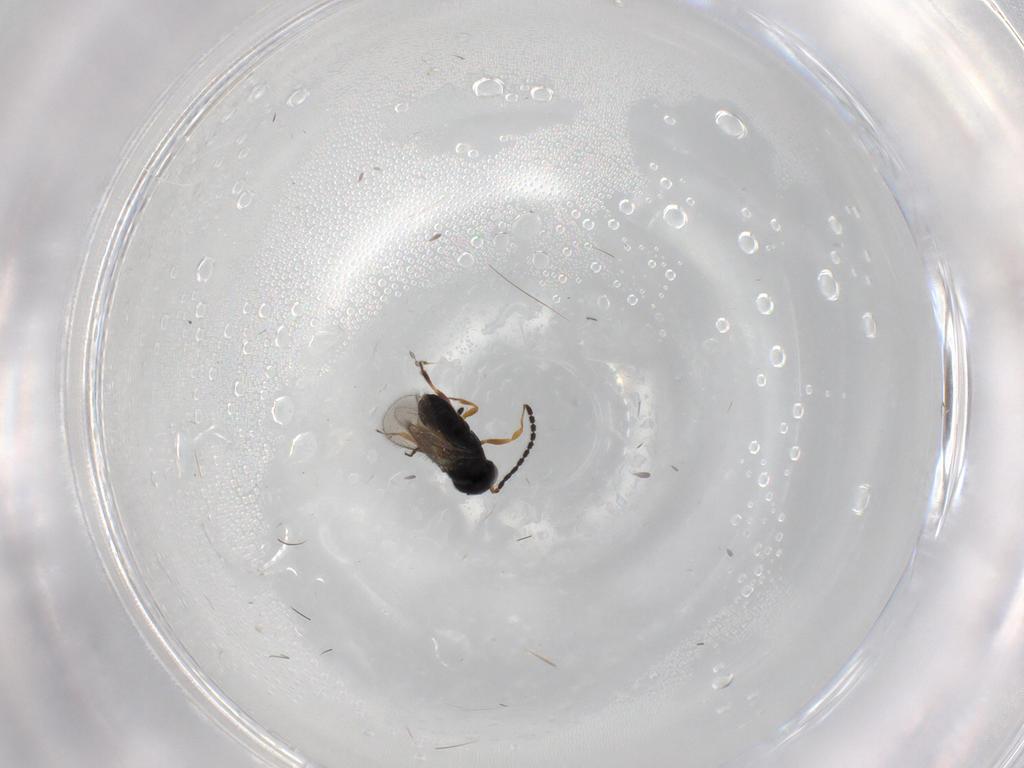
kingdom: Animalia
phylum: Arthropoda
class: Insecta
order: Hymenoptera
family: Scelionidae
